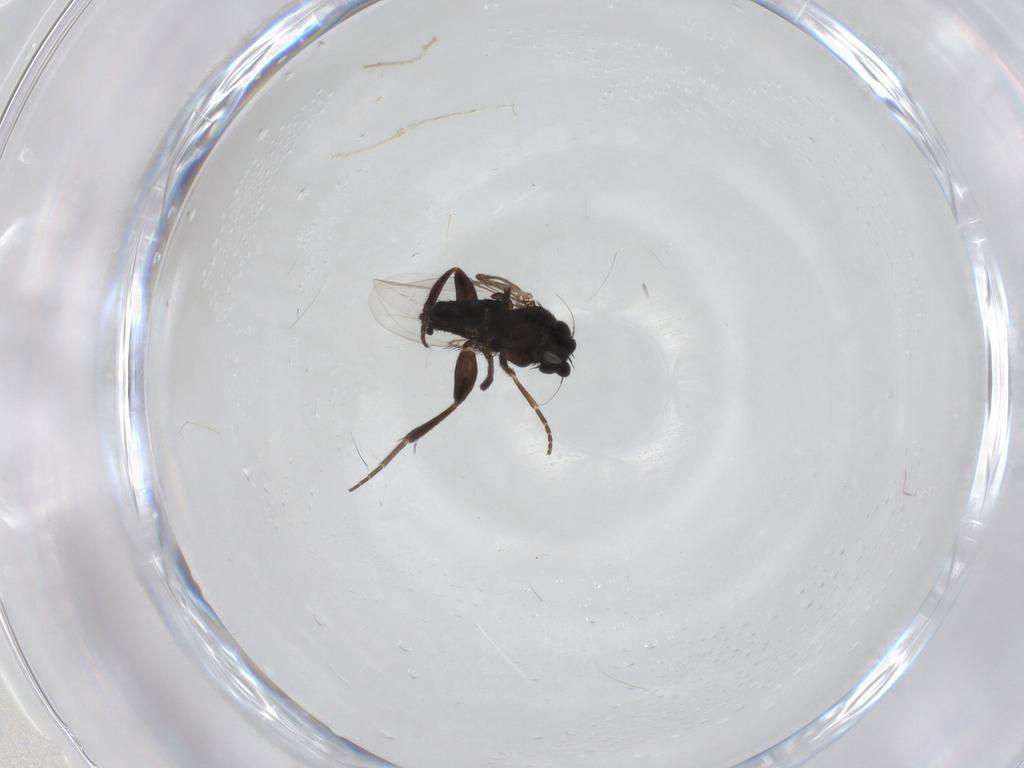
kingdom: Animalia
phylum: Arthropoda
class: Insecta
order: Diptera
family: Phoridae
